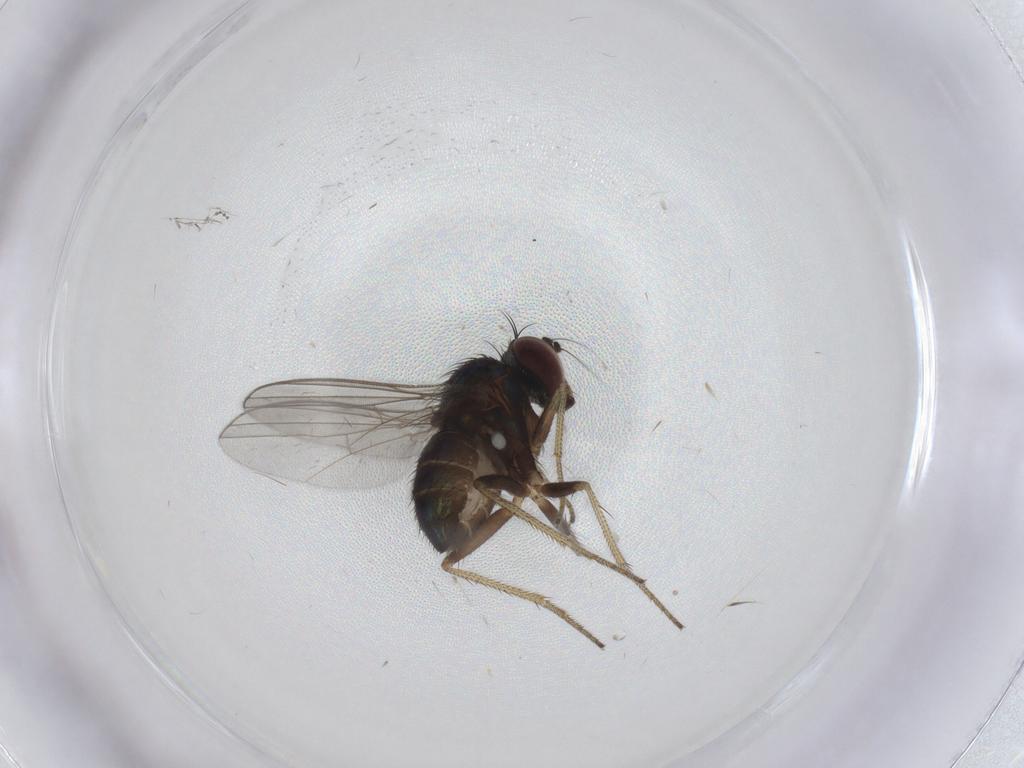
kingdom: Animalia
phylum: Arthropoda
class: Insecta
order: Diptera
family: Cecidomyiidae
